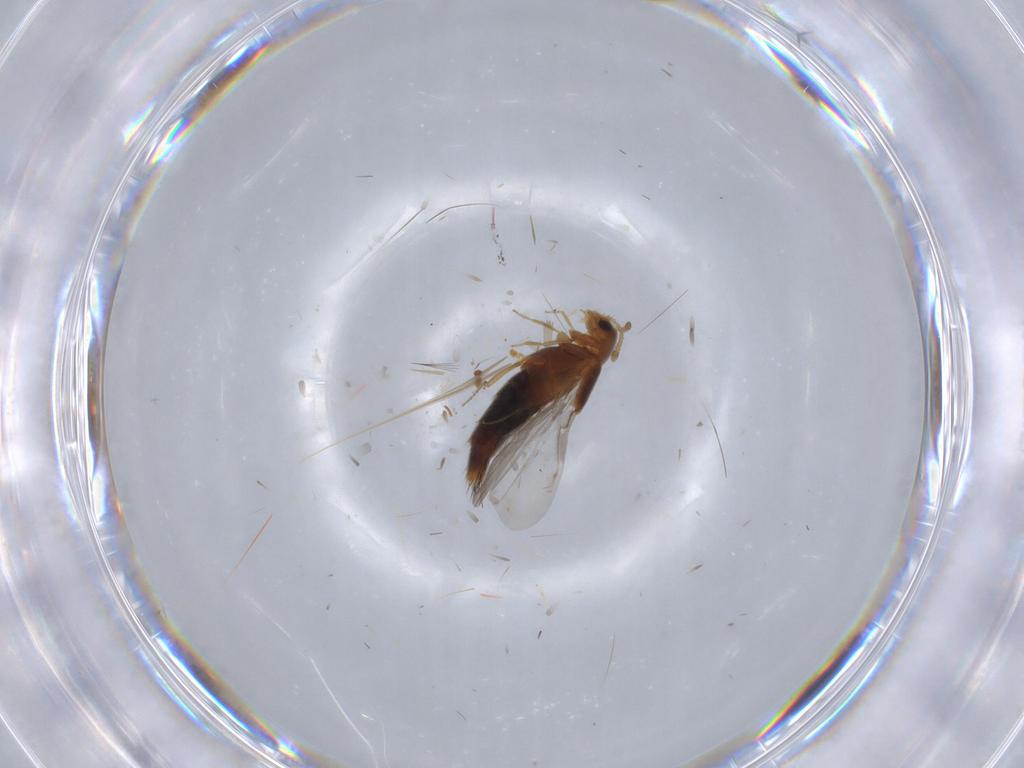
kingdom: Animalia
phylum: Arthropoda
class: Insecta
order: Coleoptera
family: Staphylinidae
